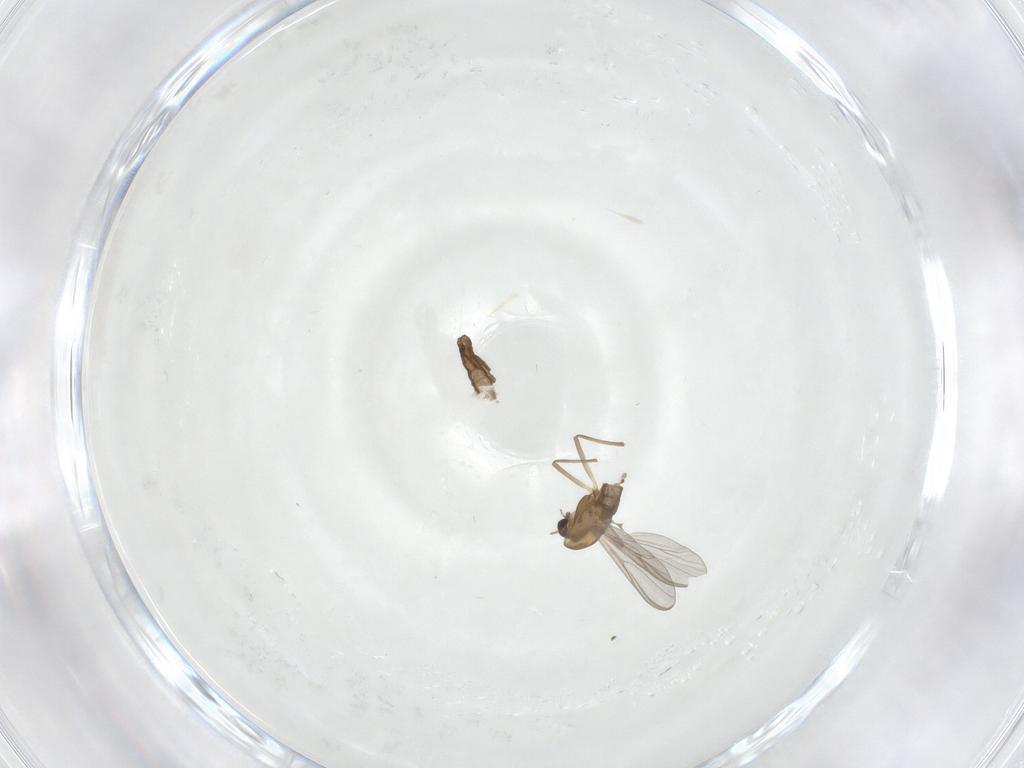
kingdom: Animalia
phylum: Arthropoda
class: Insecta
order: Diptera
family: Chironomidae
